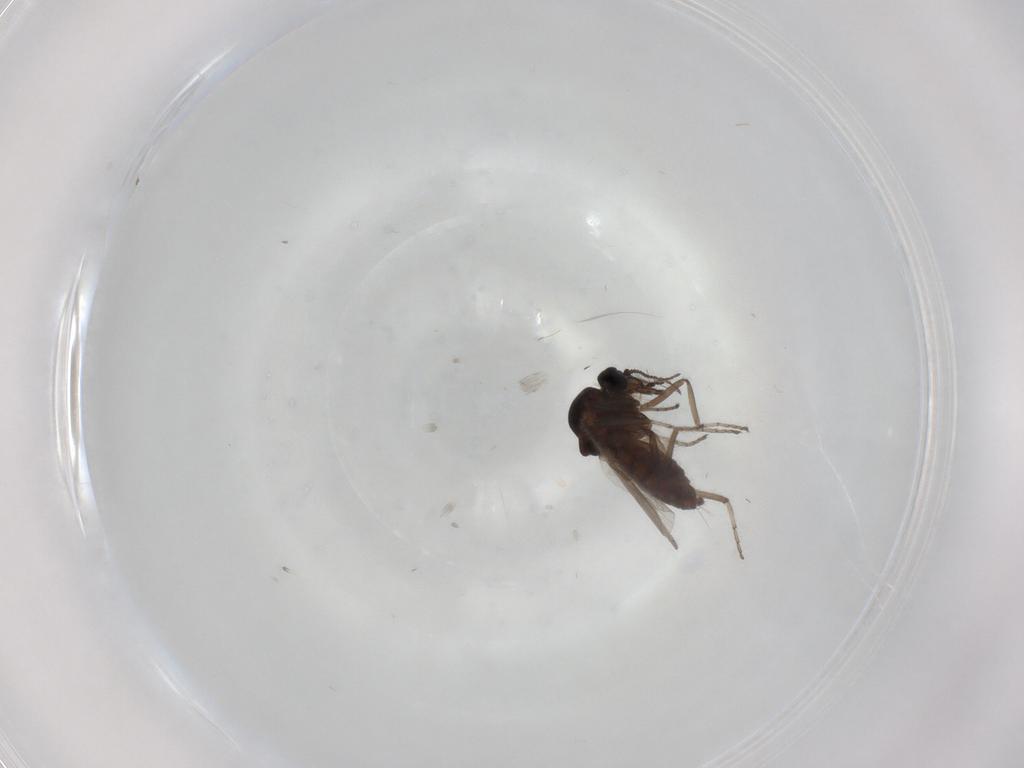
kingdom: Animalia
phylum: Arthropoda
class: Insecta
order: Diptera
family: Ceratopogonidae
